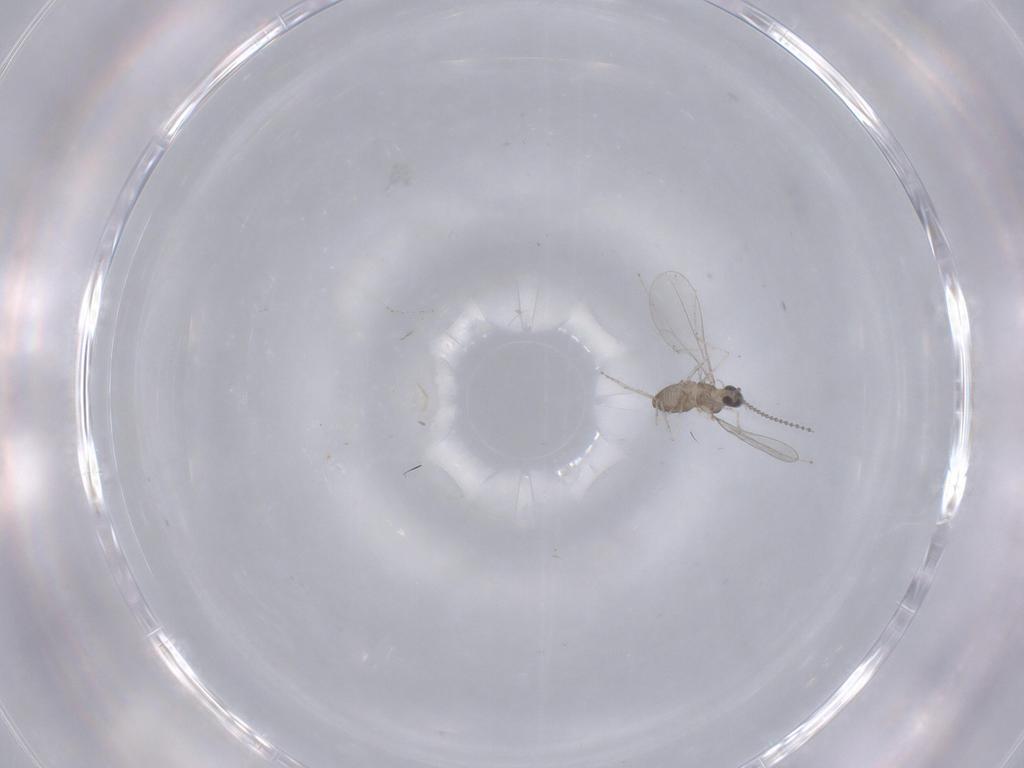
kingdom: Animalia
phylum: Arthropoda
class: Insecta
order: Diptera
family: Cecidomyiidae
